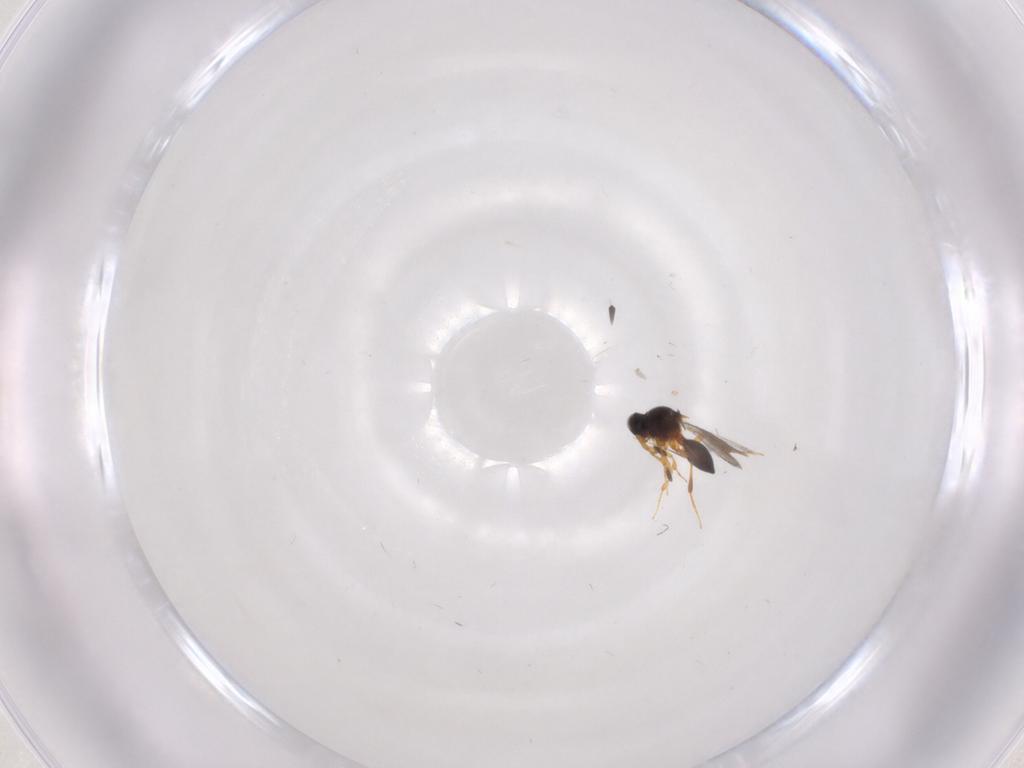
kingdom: Animalia
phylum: Arthropoda
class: Insecta
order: Hymenoptera
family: Platygastridae
